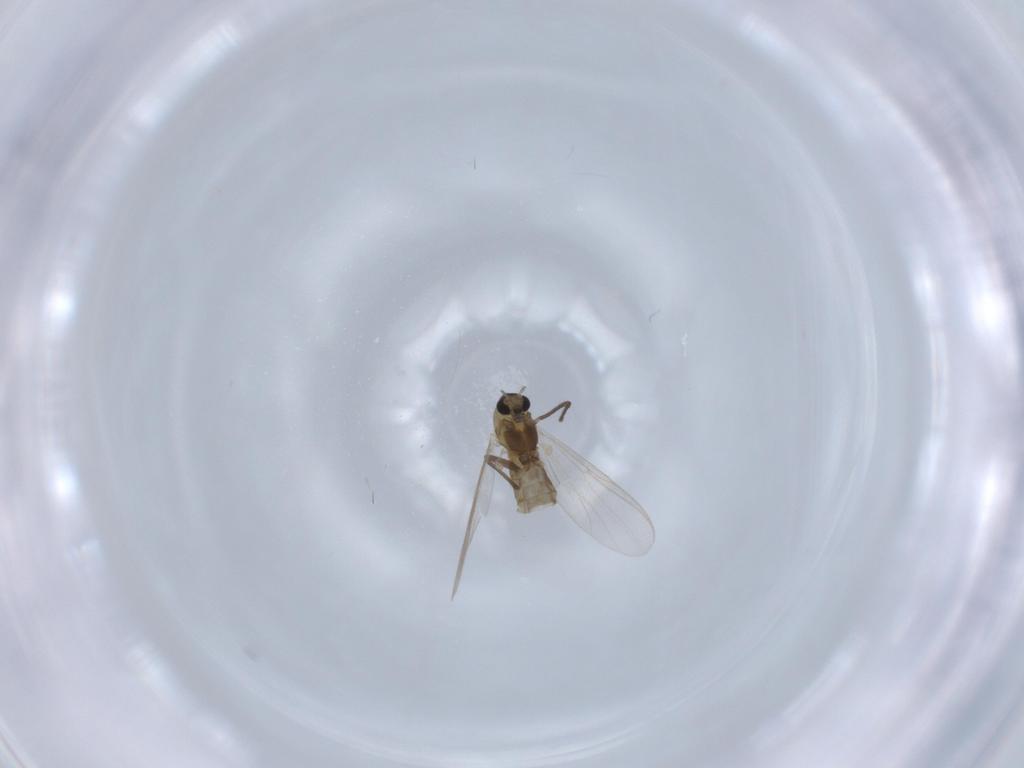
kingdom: Animalia
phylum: Arthropoda
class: Insecta
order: Diptera
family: Chironomidae
